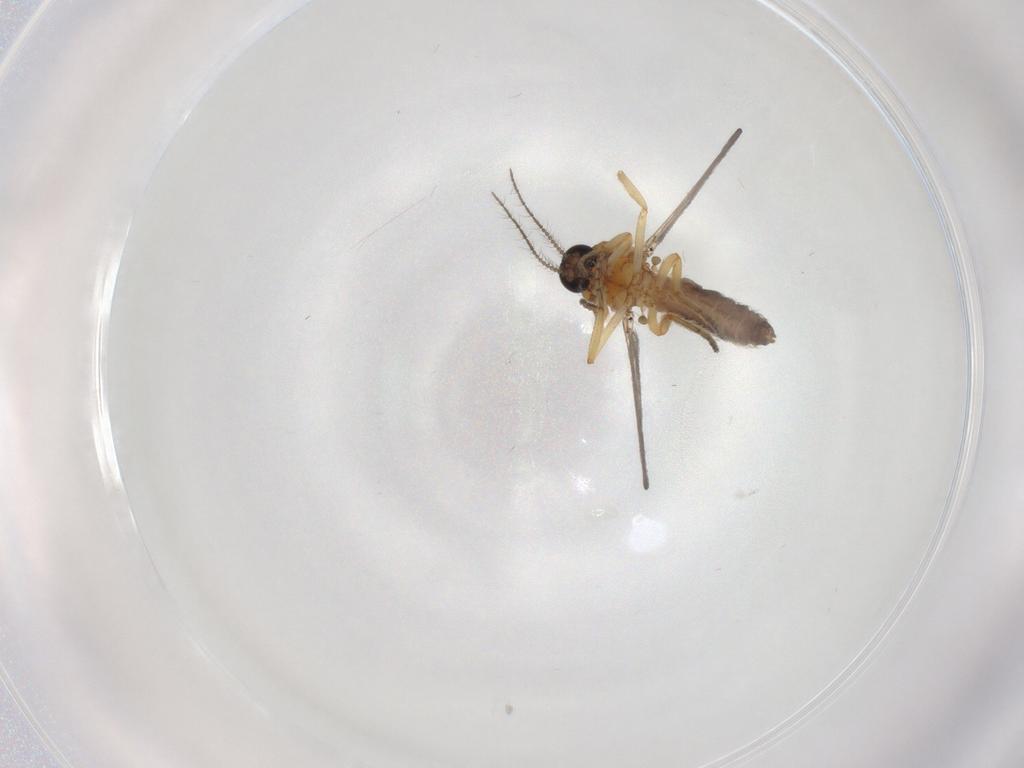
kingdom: Animalia
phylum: Arthropoda
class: Insecta
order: Diptera
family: Ceratopogonidae
